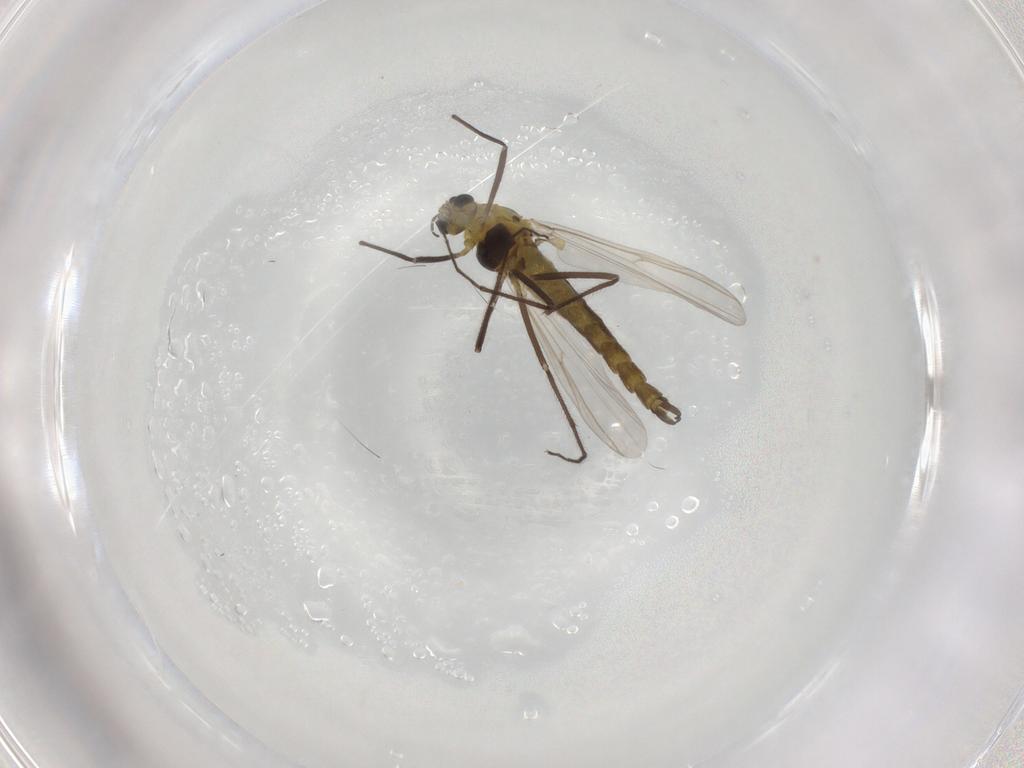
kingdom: Animalia
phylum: Arthropoda
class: Insecta
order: Diptera
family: Chironomidae
